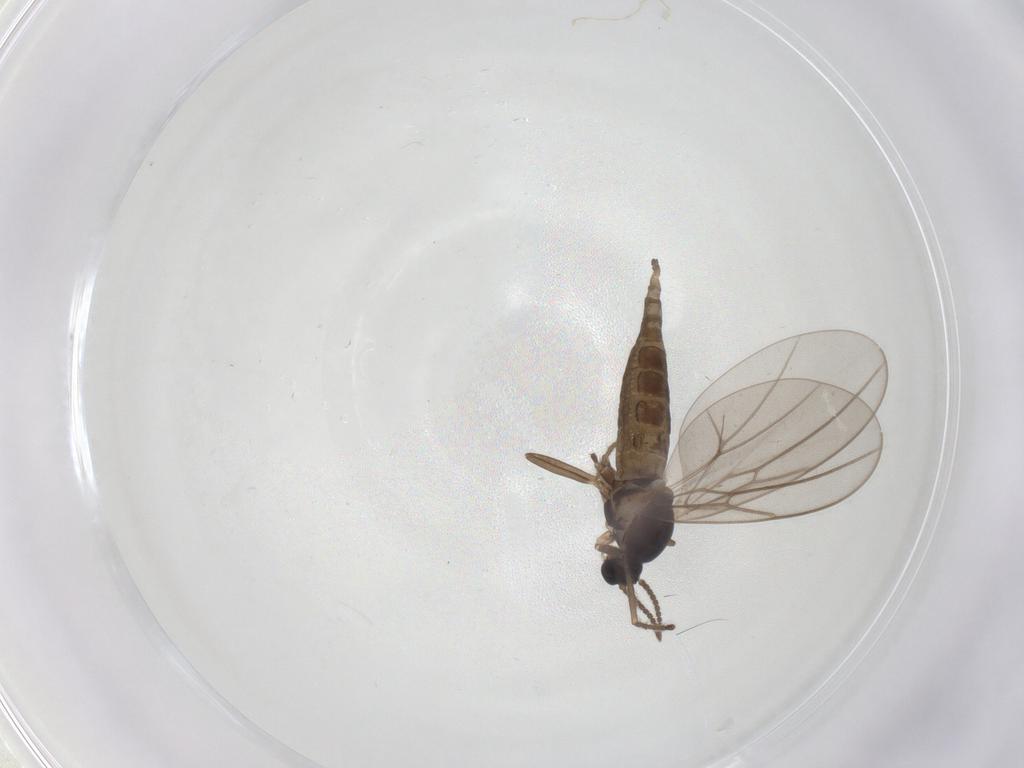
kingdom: Animalia
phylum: Arthropoda
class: Insecta
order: Diptera
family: Cecidomyiidae
